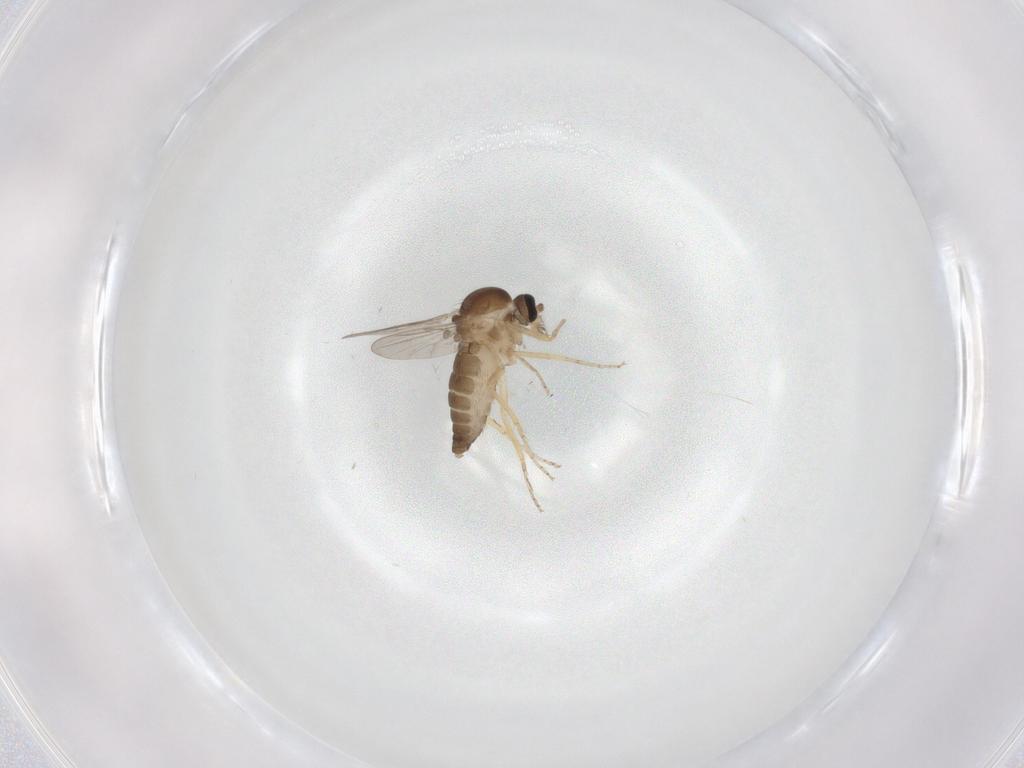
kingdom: Animalia
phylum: Arthropoda
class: Insecta
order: Diptera
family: Ceratopogonidae
